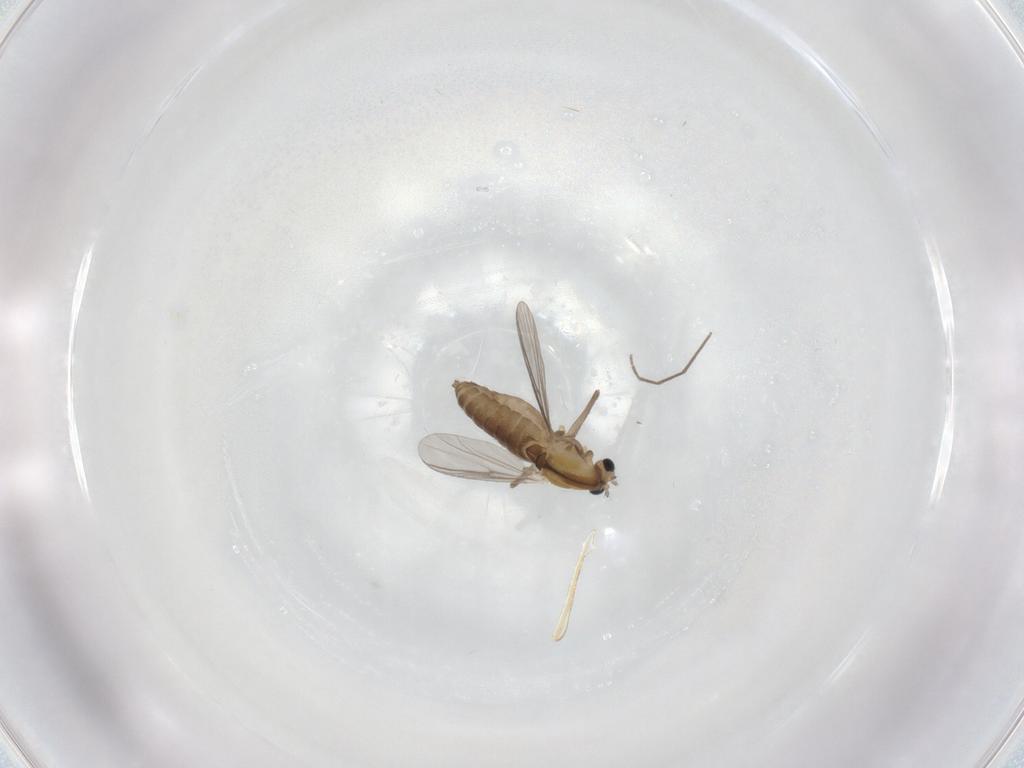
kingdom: Animalia
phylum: Arthropoda
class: Insecta
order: Diptera
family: Chironomidae
